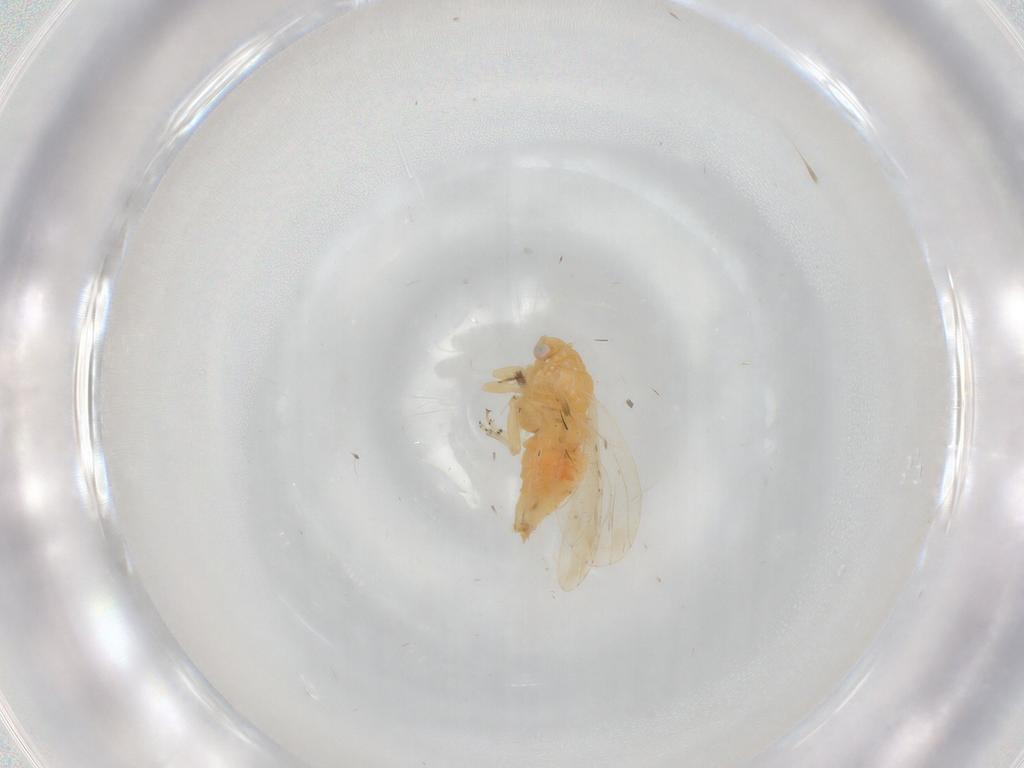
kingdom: Animalia
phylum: Arthropoda
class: Insecta
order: Hemiptera
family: Psyllidae
